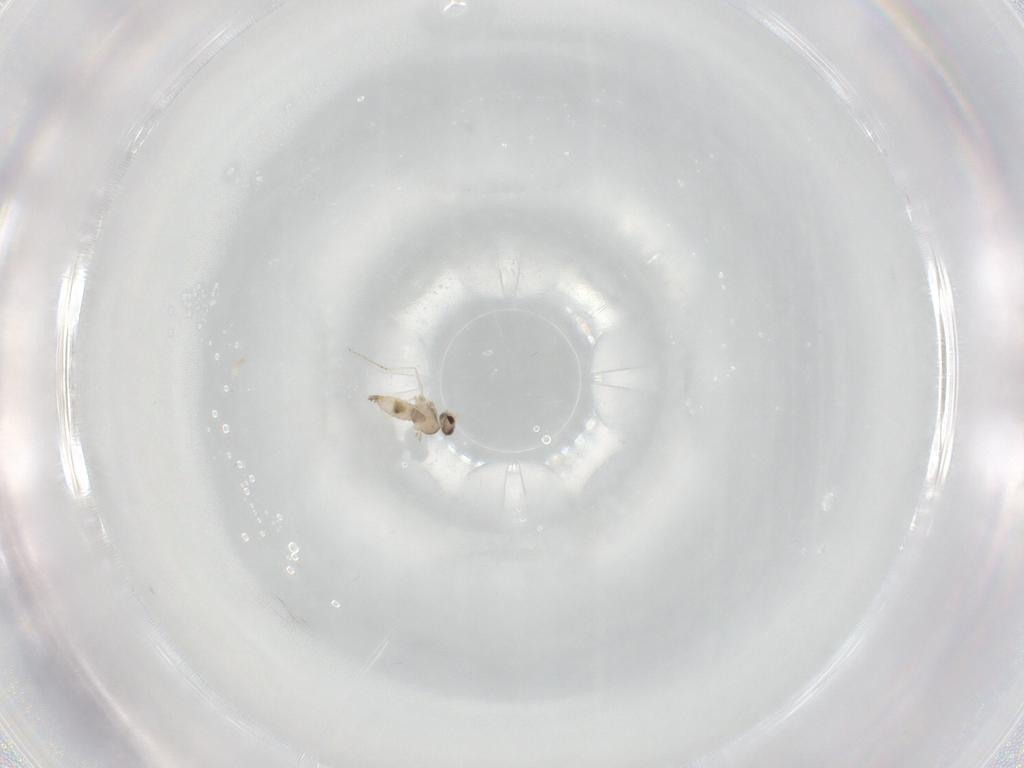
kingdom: Animalia
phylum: Arthropoda
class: Insecta
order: Diptera
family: Cecidomyiidae
